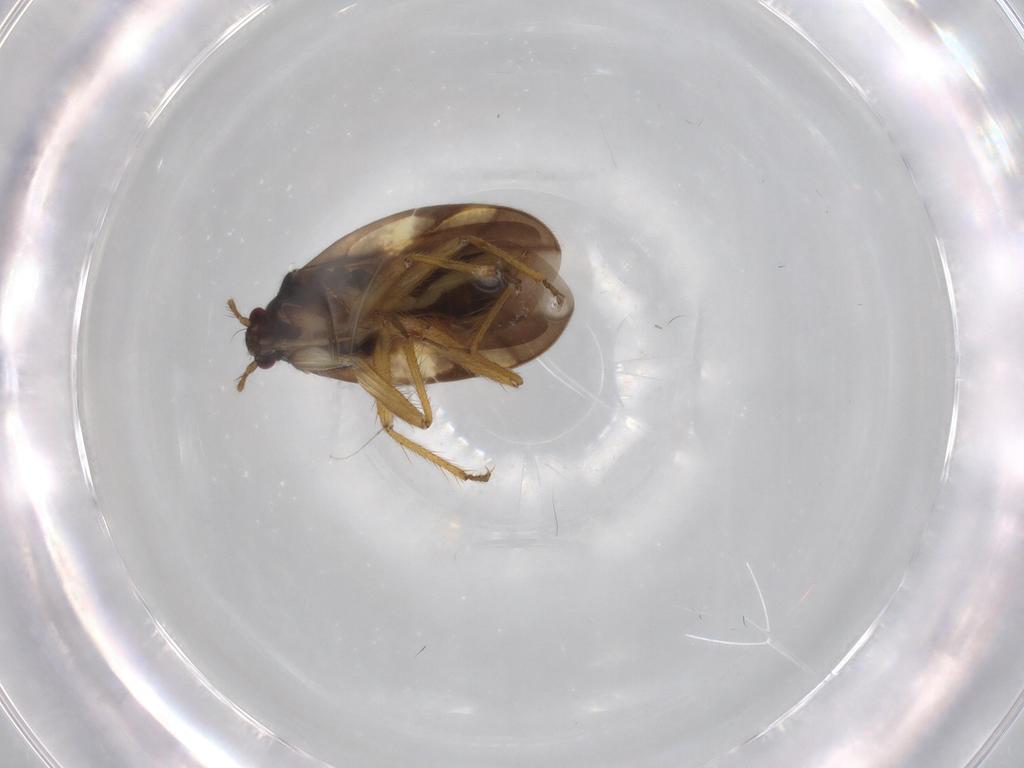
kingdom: Animalia
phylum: Arthropoda
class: Insecta
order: Hemiptera
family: Ceratocombidae
